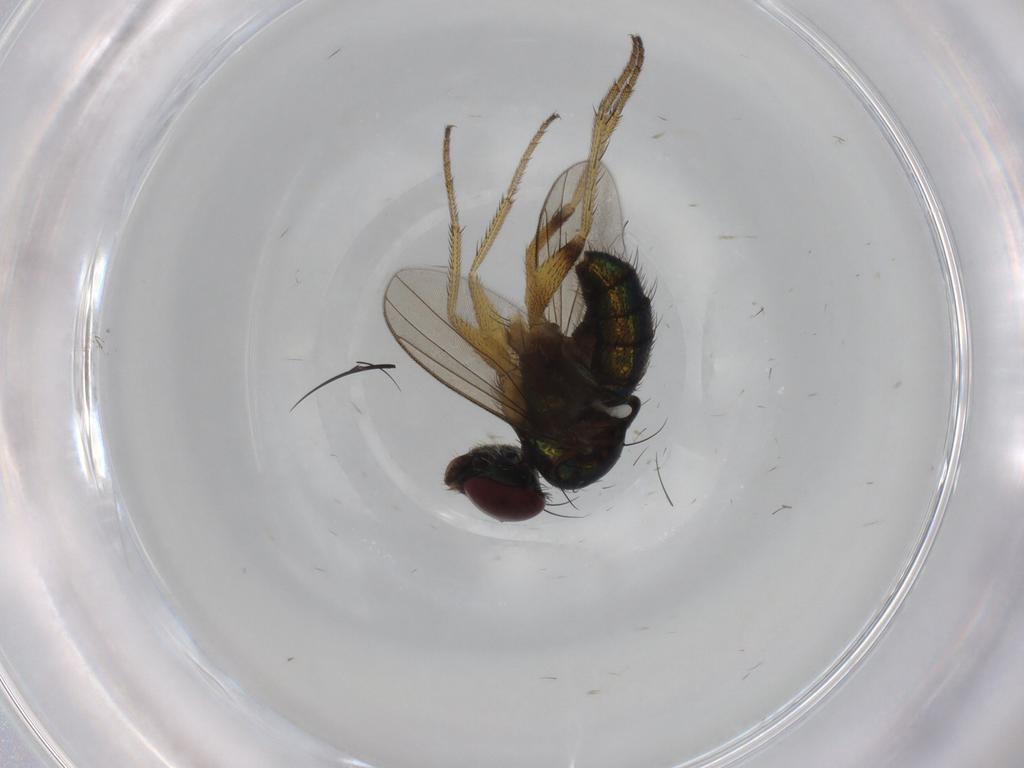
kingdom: Animalia
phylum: Arthropoda
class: Insecta
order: Diptera
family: Dolichopodidae
